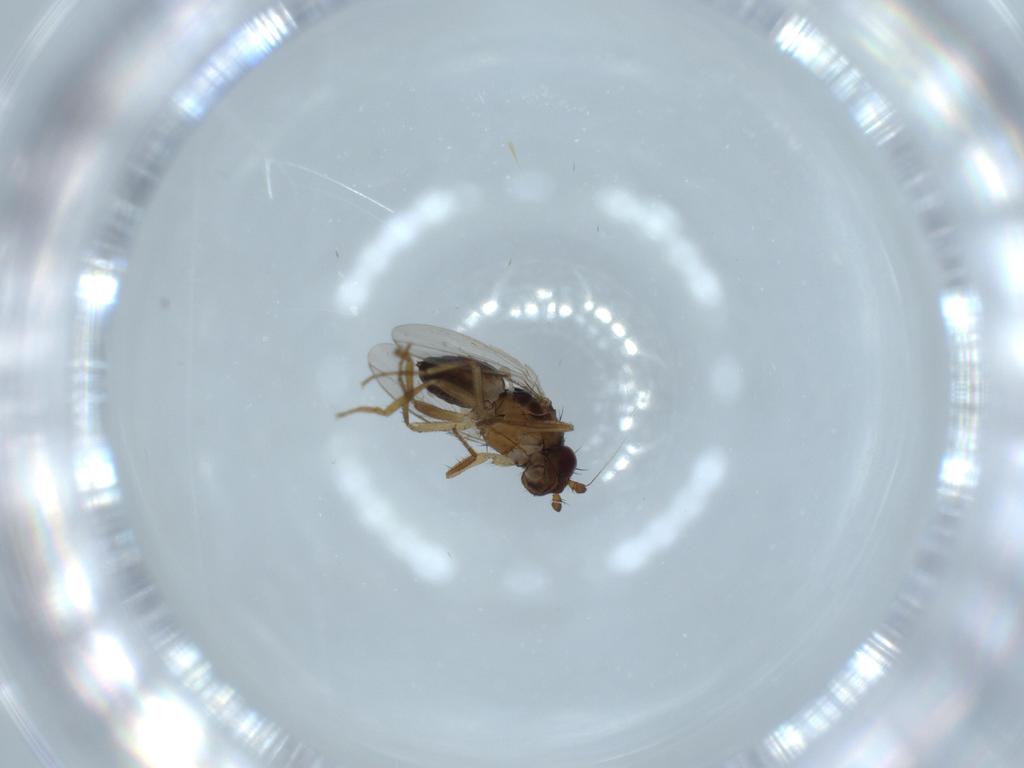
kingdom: Animalia
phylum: Arthropoda
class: Insecta
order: Diptera
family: Sphaeroceridae
